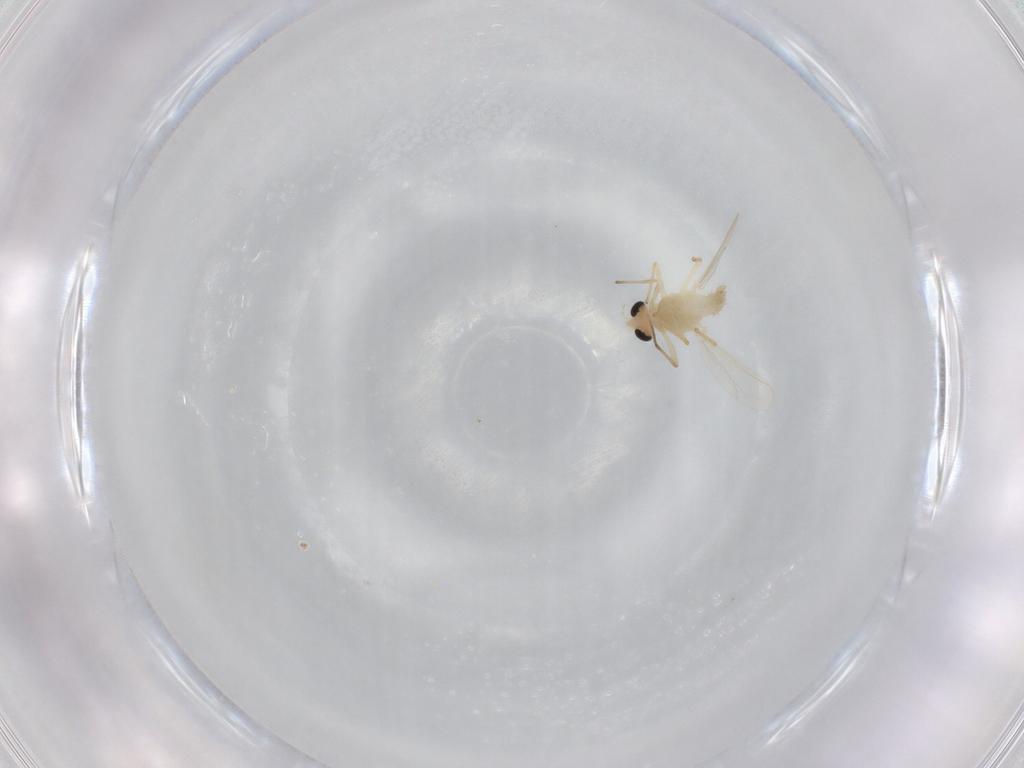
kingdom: Animalia
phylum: Arthropoda
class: Insecta
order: Diptera
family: Chironomidae
